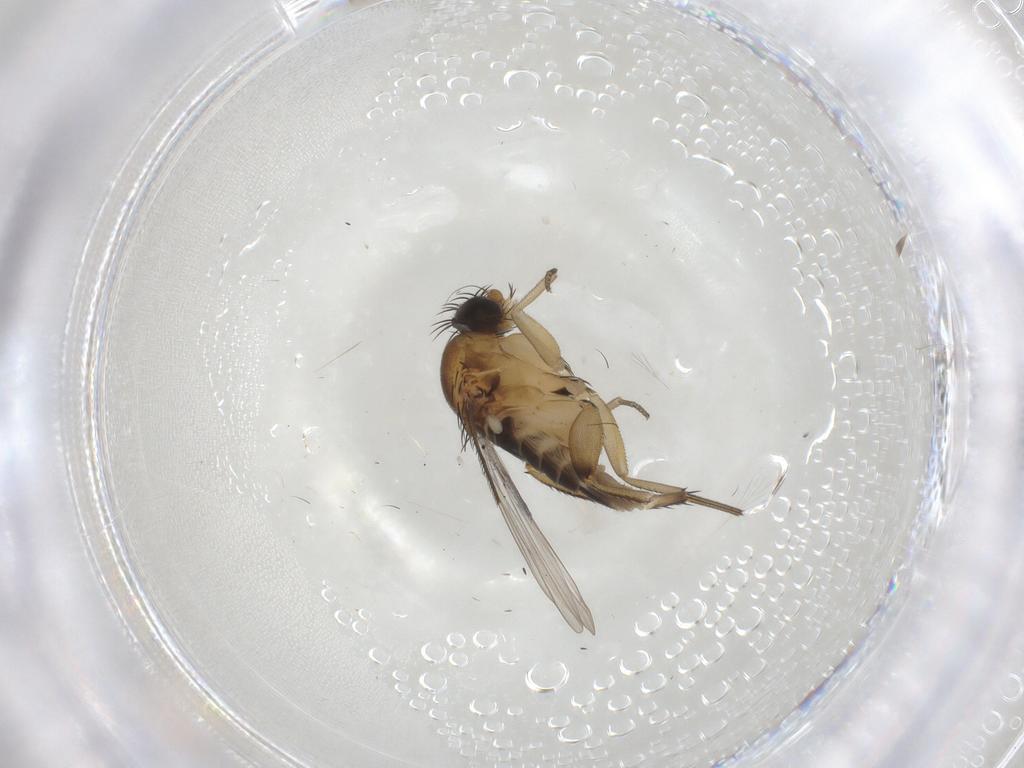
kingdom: Animalia
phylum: Arthropoda
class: Insecta
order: Diptera
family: Phoridae
